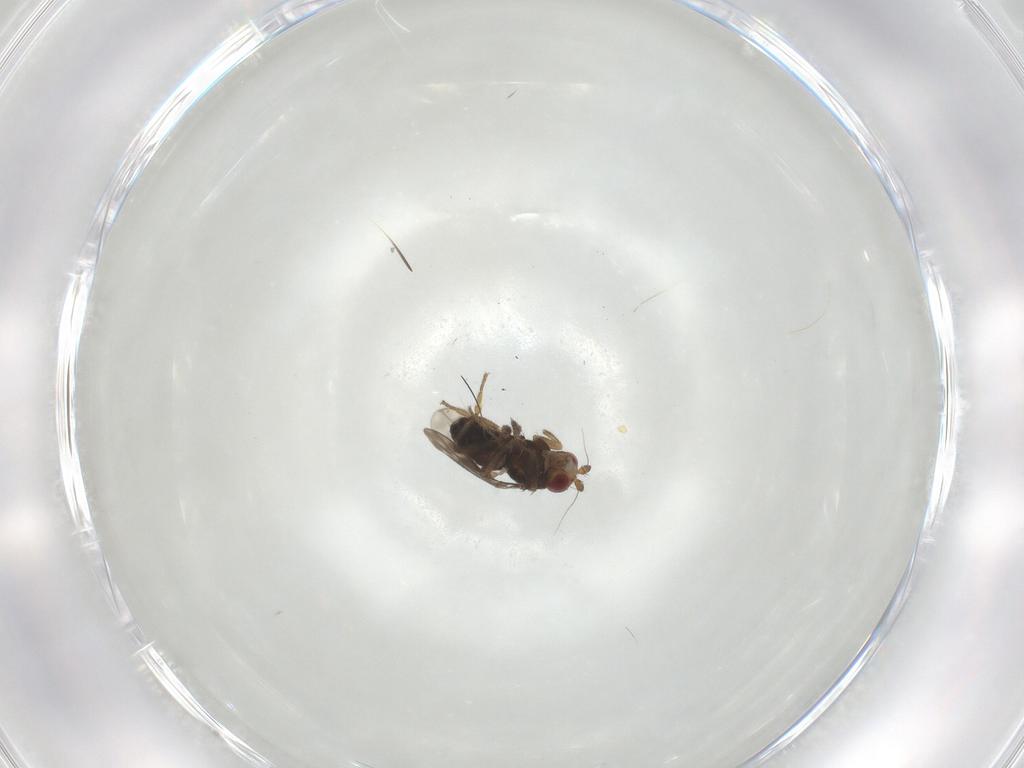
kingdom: Animalia
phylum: Arthropoda
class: Insecta
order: Diptera
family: Sphaeroceridae
